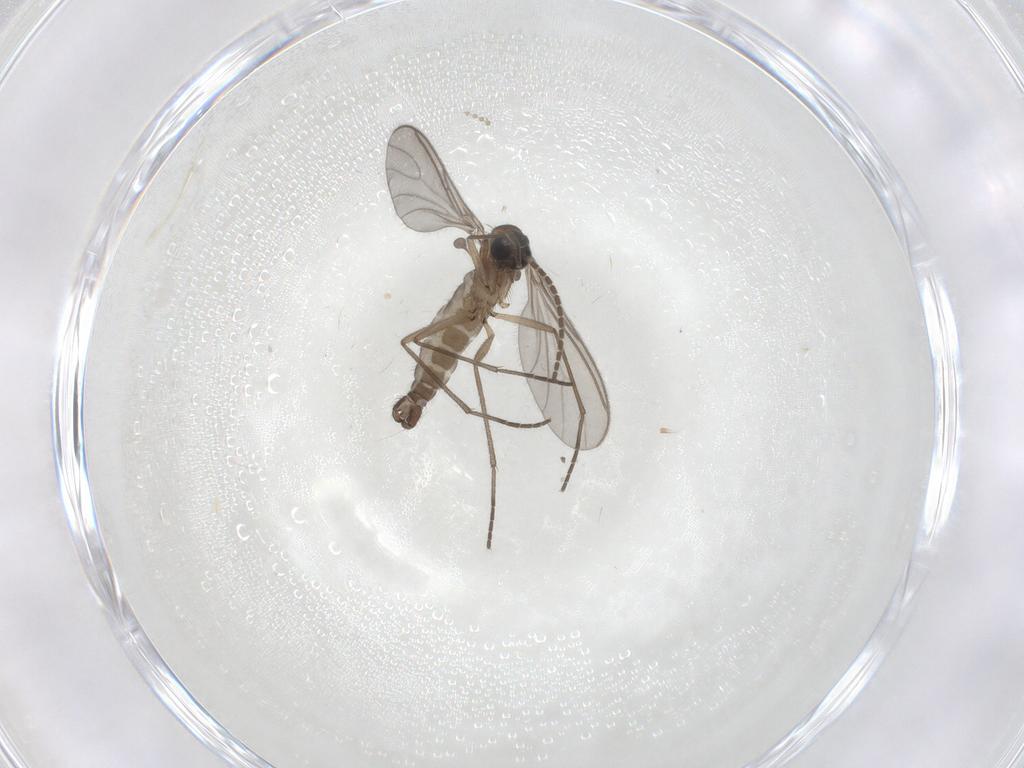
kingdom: Animalia
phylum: Arthropoda
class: Insecta
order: Diptera
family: Sciaridae
